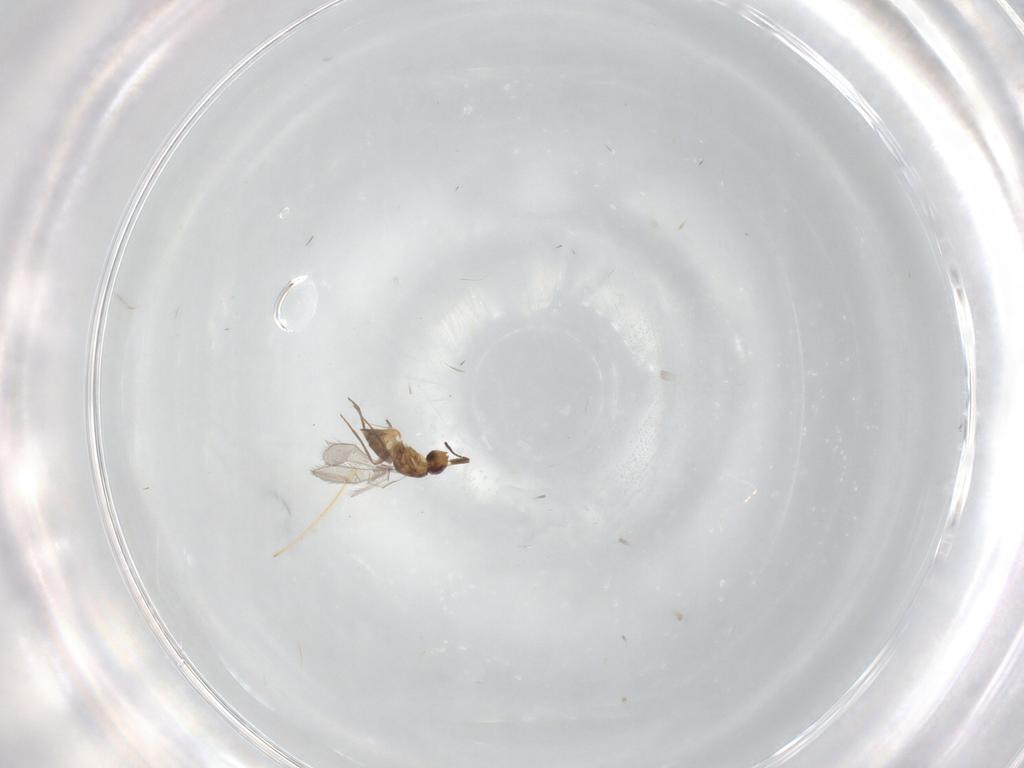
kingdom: Animalia
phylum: Arthropoda
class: Insecta
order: Hymenoptera
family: Mymaridae
